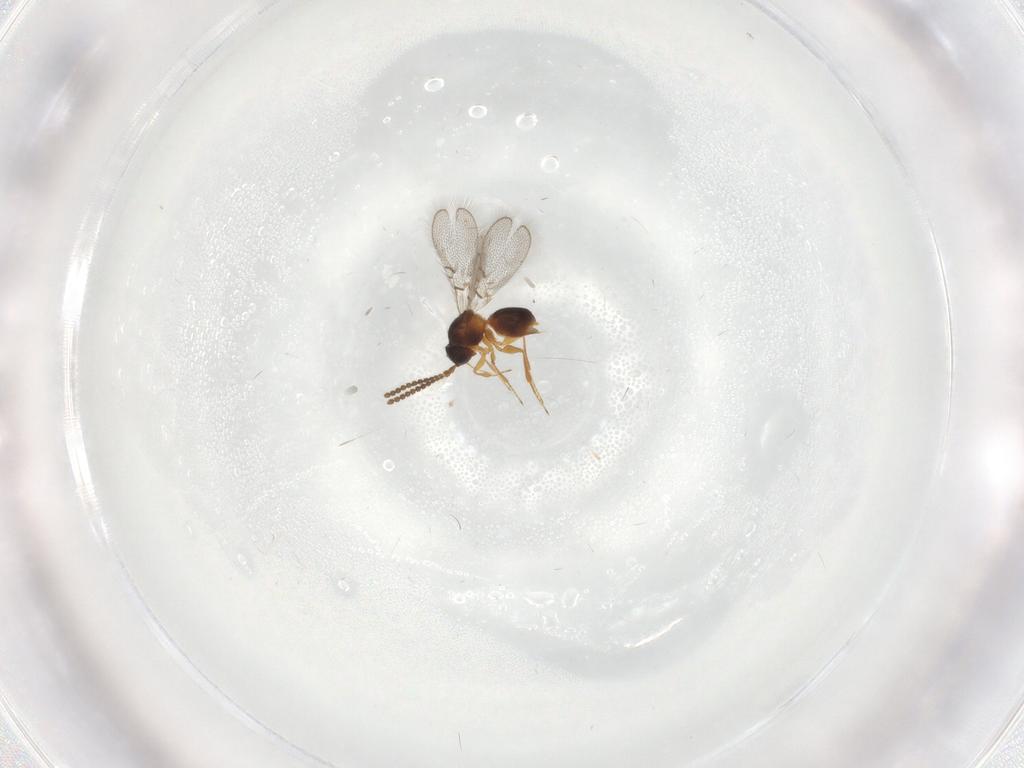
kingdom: Animalia
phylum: Arthropoda
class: Insecta
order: Hymenoptera
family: Figitidae
